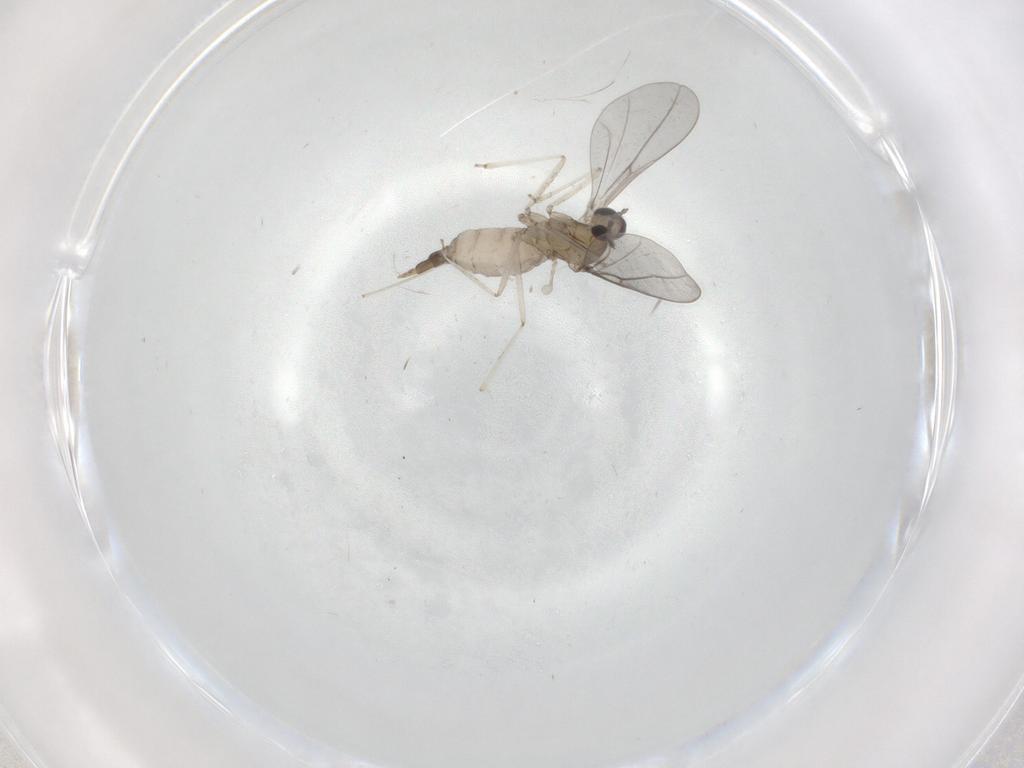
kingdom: Animalia
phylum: Arthropoda
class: Insecta
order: Diptera
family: Cecidomyiidae
